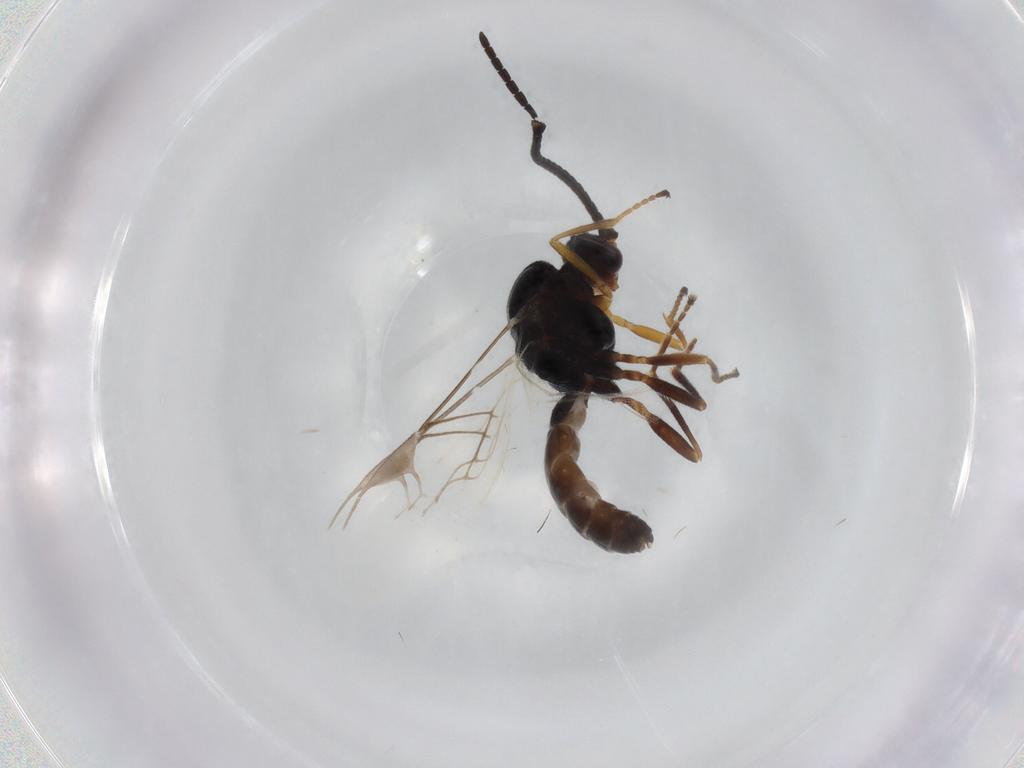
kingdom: Animalia
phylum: Arthropoda
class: Insecta
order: Hymenoptera
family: Braconidae
